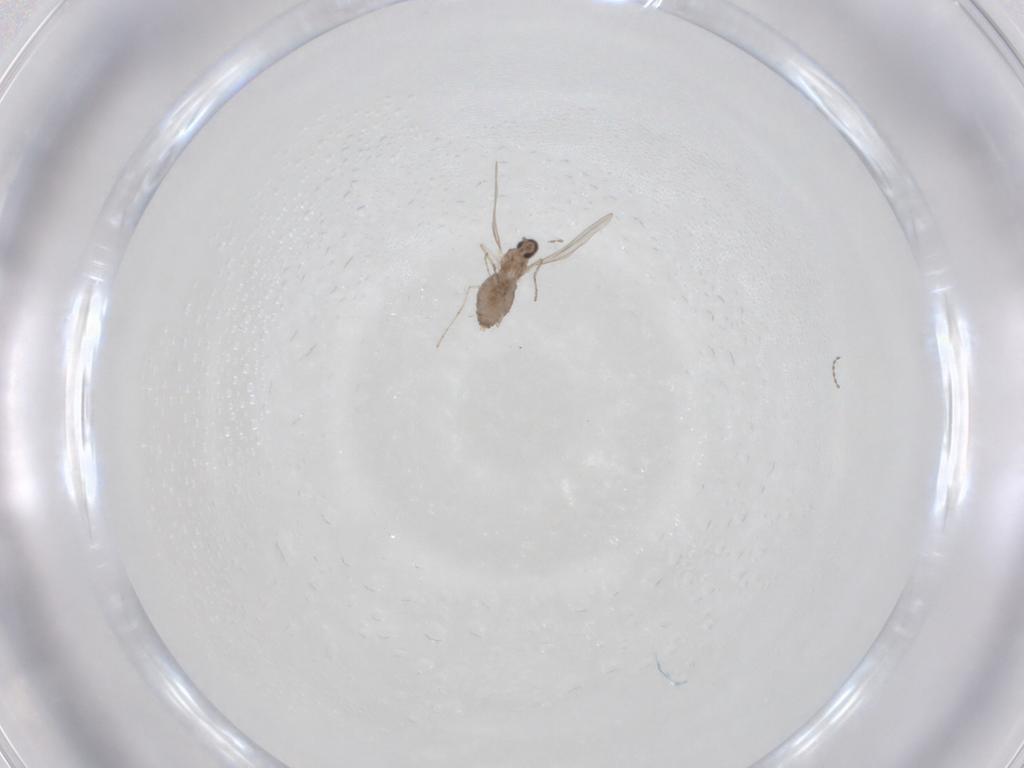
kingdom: Animalia
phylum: Arthropoda
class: Insecta
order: Diptera
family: Cecidomyiidae
